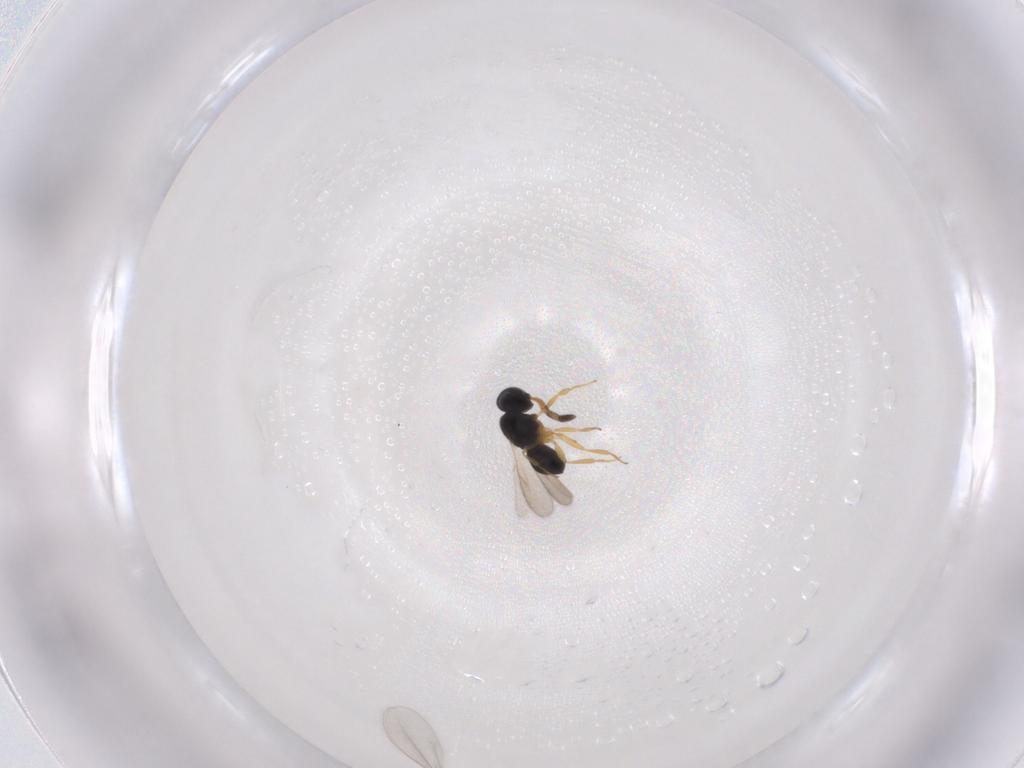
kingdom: Animalia
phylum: Arthropoda
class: Insecta
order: Hymenoptera
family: Scelionidae
